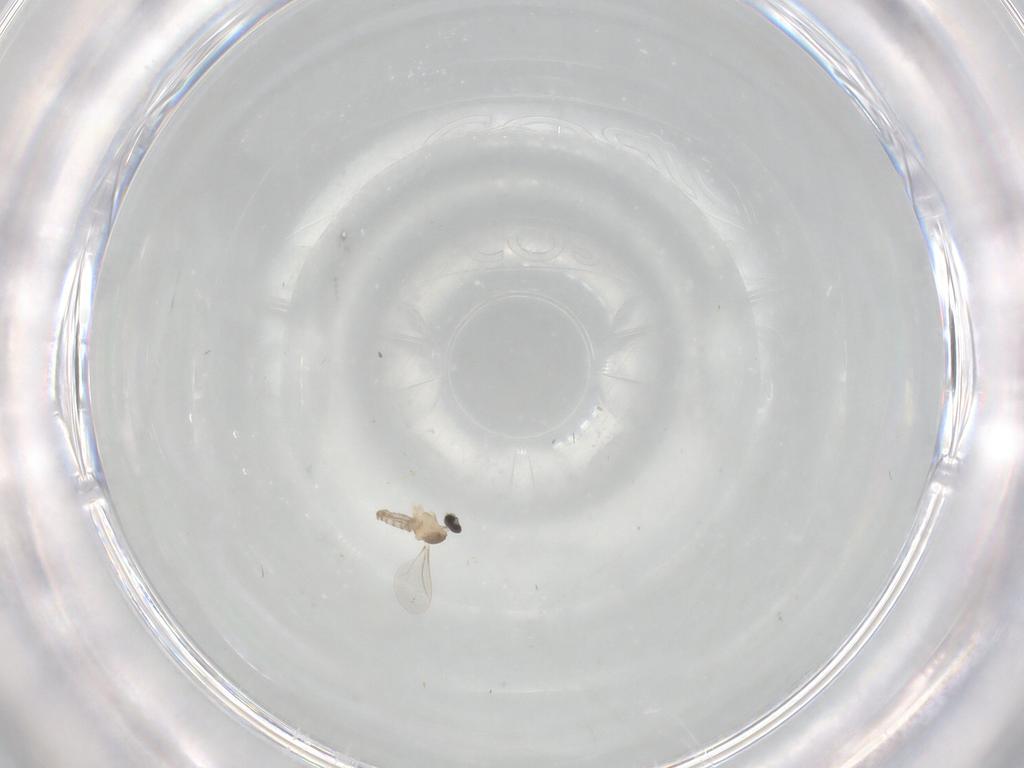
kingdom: Animalia
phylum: Arthropoda
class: Insecta
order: Diptera
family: Cecidomyiidae
